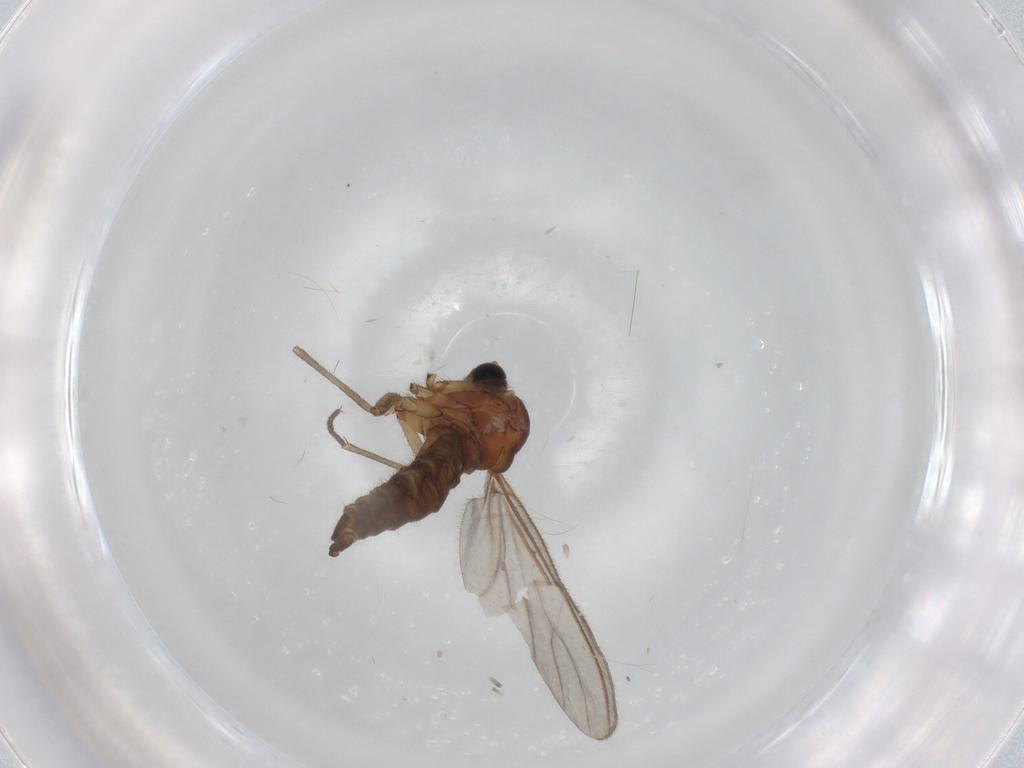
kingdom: Animalia
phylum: Arthropoda
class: Insecta
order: Diptera
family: Sciaridae
